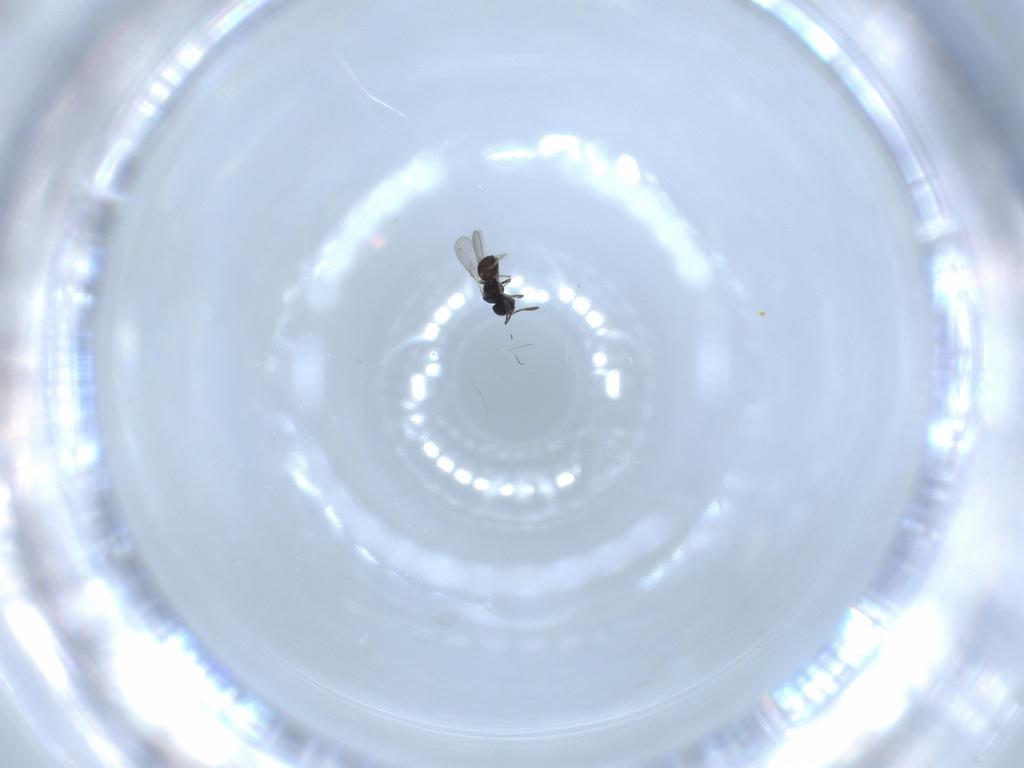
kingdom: Animalia
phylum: Arthropoda
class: Insecta
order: Hymenoptera
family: Scelionidae
